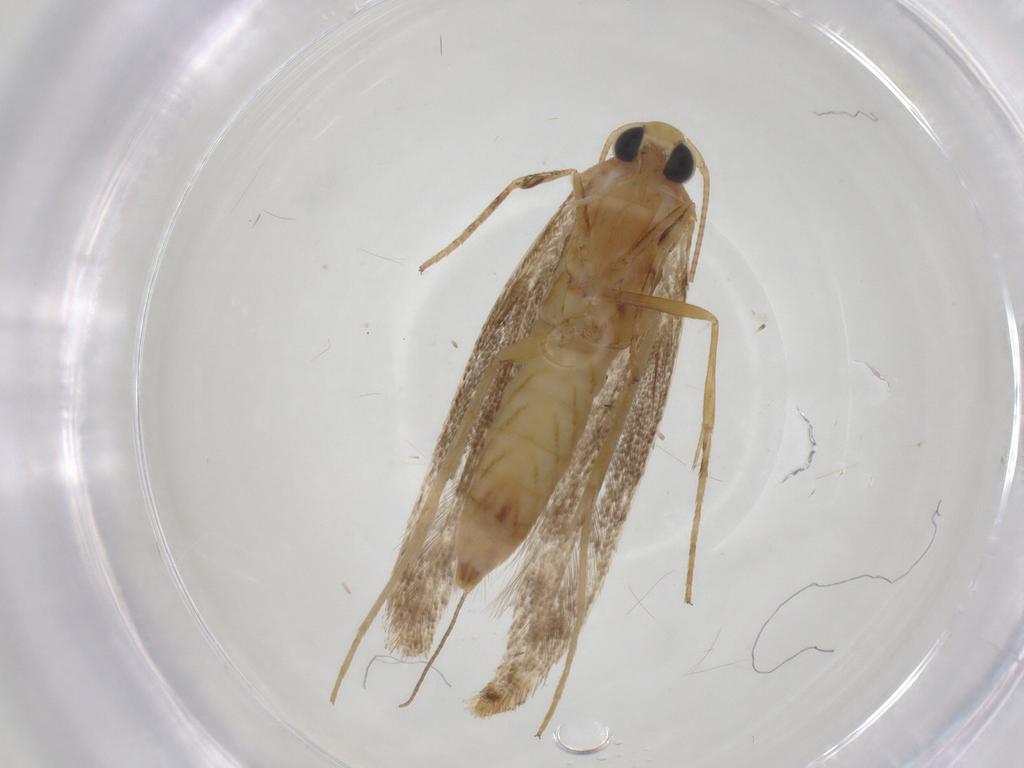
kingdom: Animalia
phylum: Arthropoda
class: Insecta
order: Lepidoptera
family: Gracillariidae
